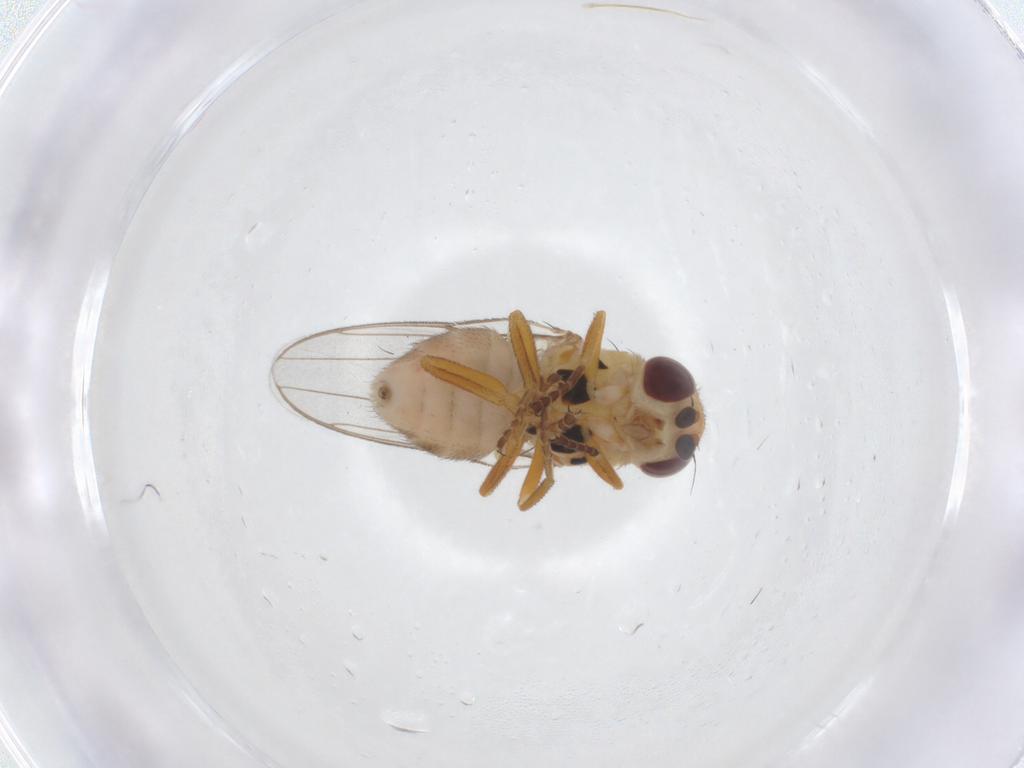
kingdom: Animalia
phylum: Arthropoda
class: Insecta
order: Diptera
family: Chloropidae
